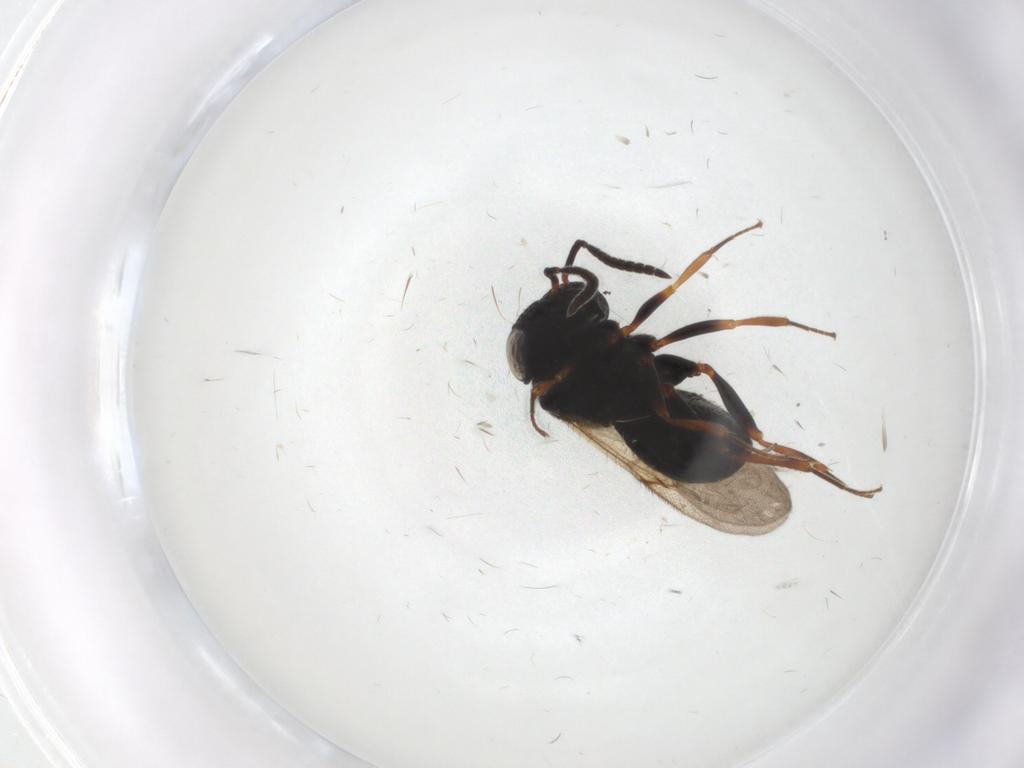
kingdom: Animalia
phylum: Arthropoda
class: Insecta
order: Hymenoptera
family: Scelionidae
